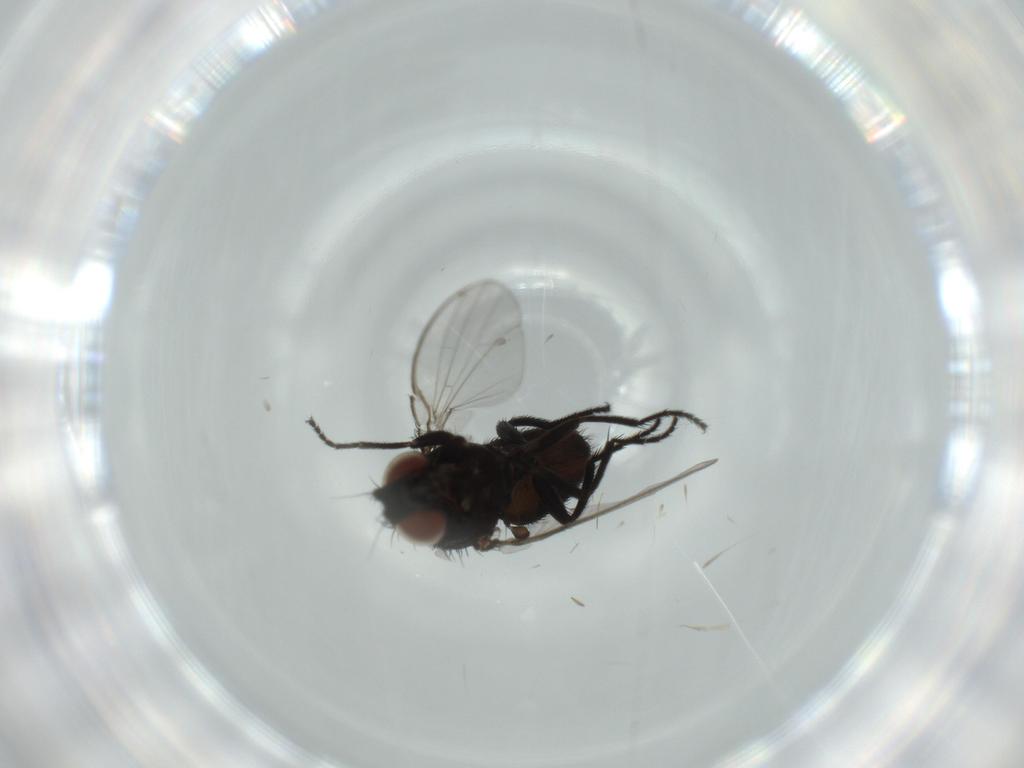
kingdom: Animalia
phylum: Arthropoda
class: Insecta
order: Diptera
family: Milichiidae
